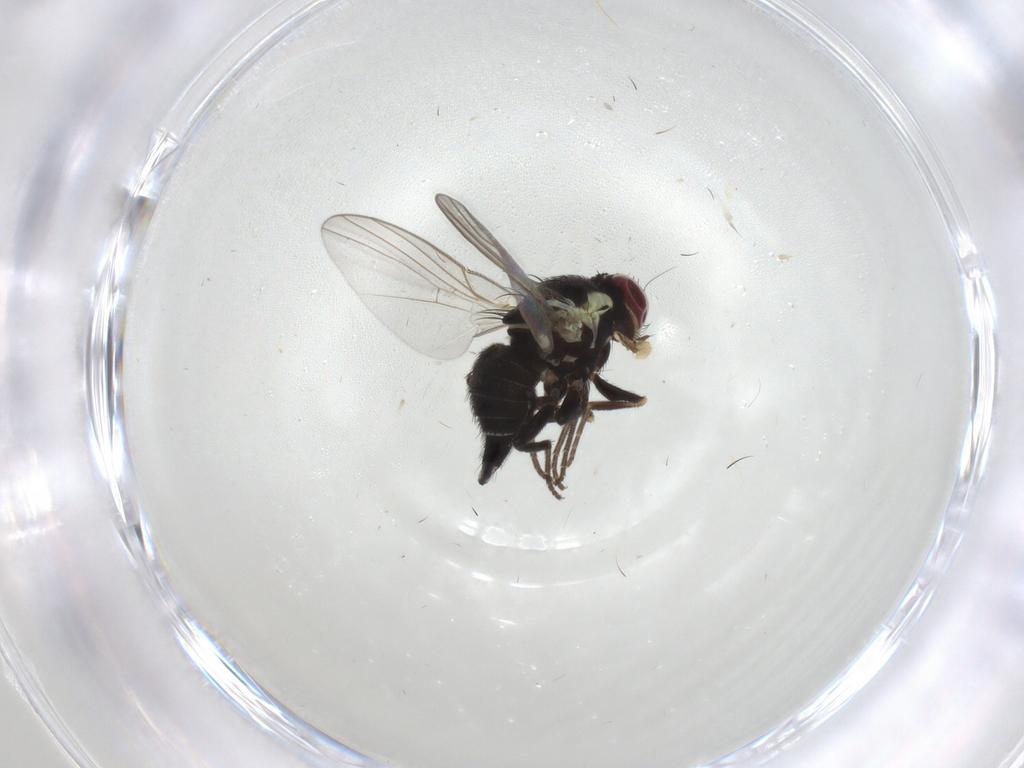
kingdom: Animalia
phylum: Arthropoda
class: Insecta
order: Diptera
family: Agromyzidae
